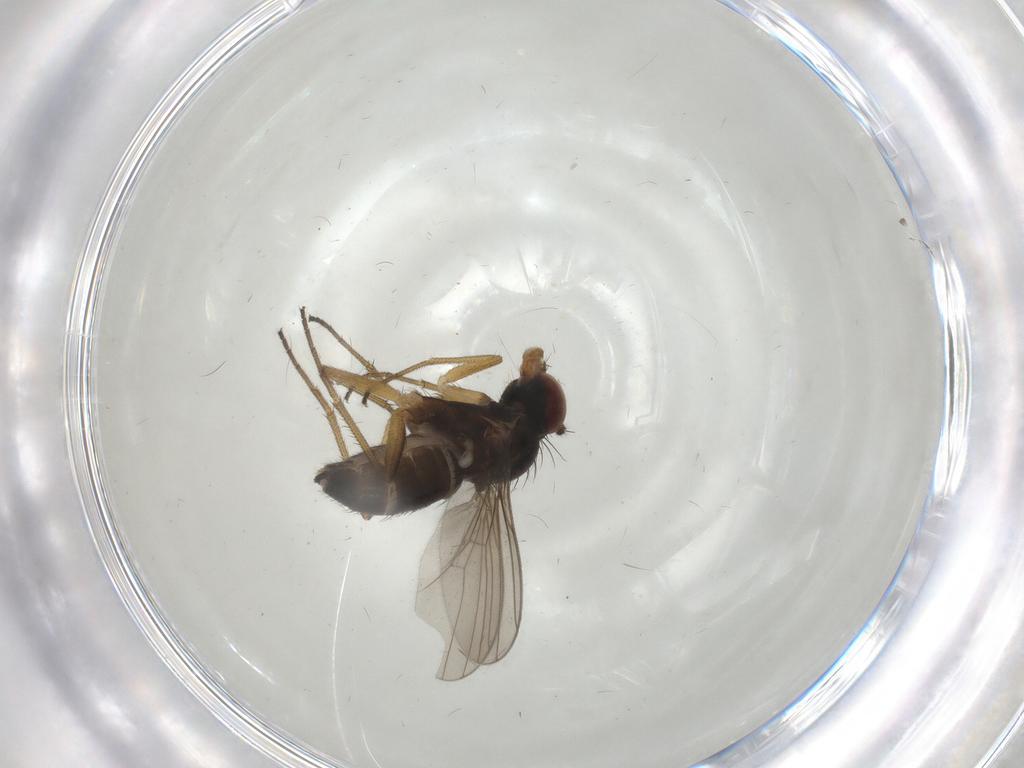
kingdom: Animalia
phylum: Arthropoda
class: Insecta
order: Diptera
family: Dolichopodidae
